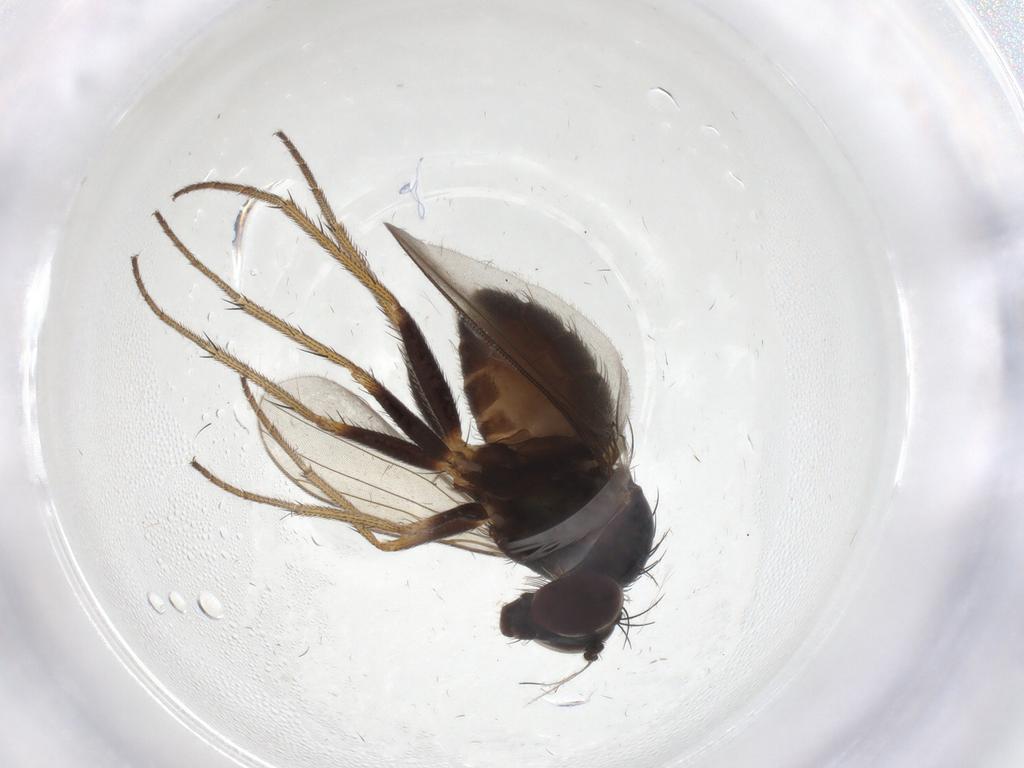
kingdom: Animalia
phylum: Arthropoda
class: Insecta
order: Diptera
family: Dolichopodidae
